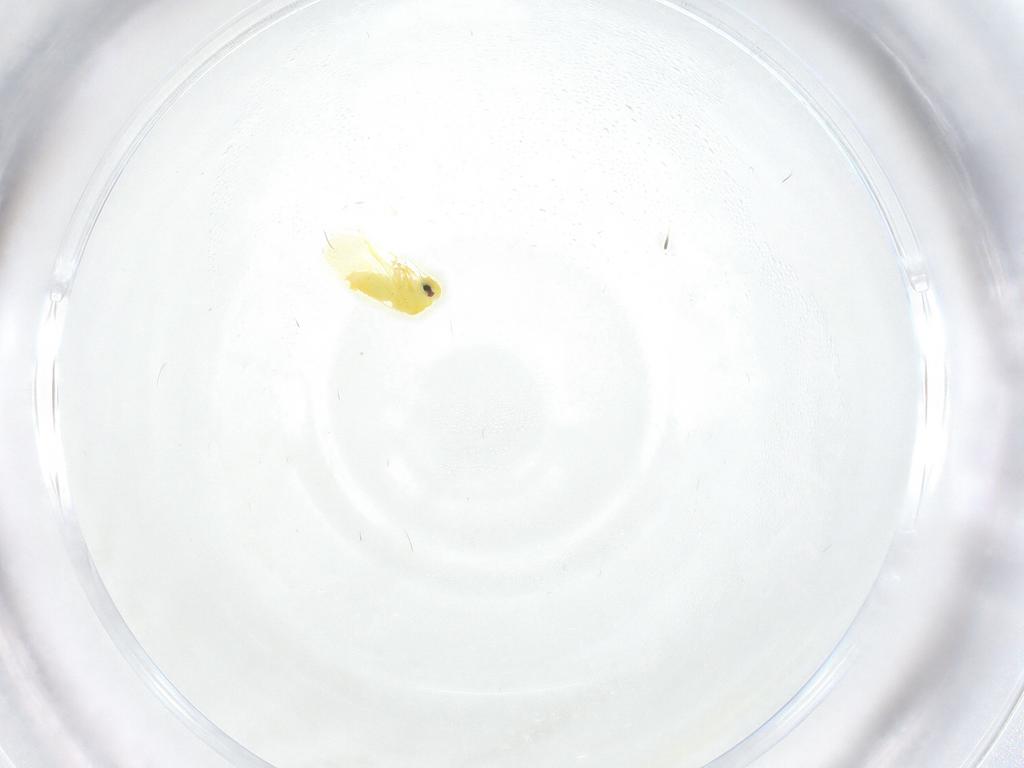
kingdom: Animalia
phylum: Arthropoda
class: Insecta
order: Hemiptera
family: Aleyrodidae
